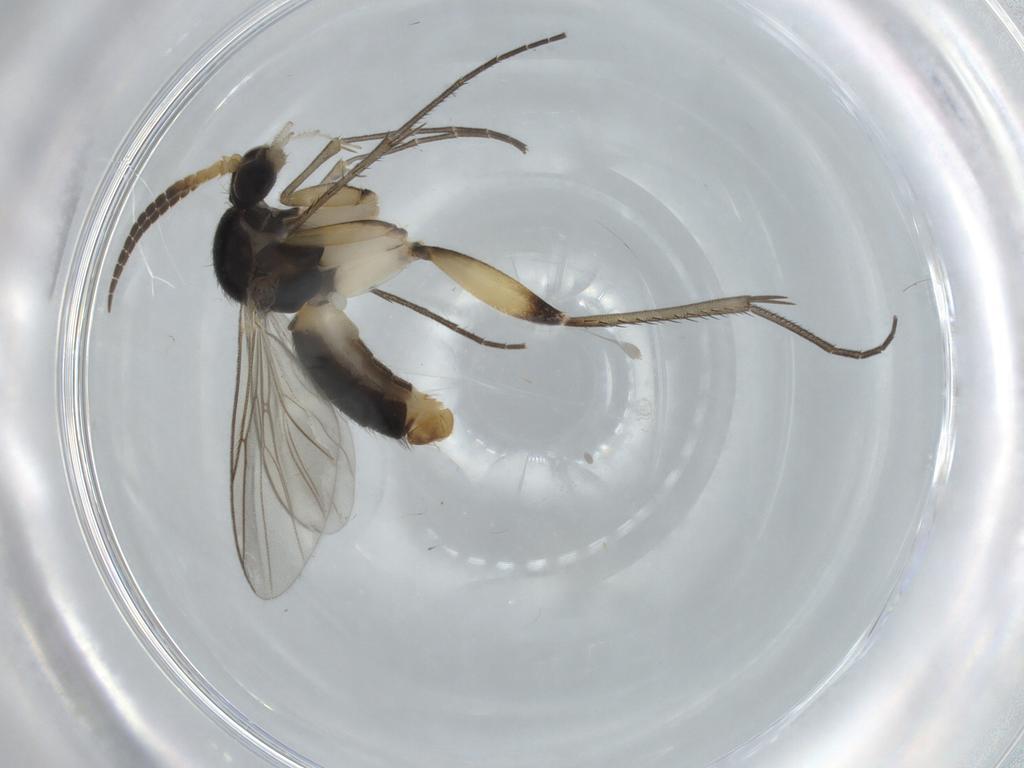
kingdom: Animalia
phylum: Arthropoda
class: Insecta
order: Diptera
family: Mycetophilidae
